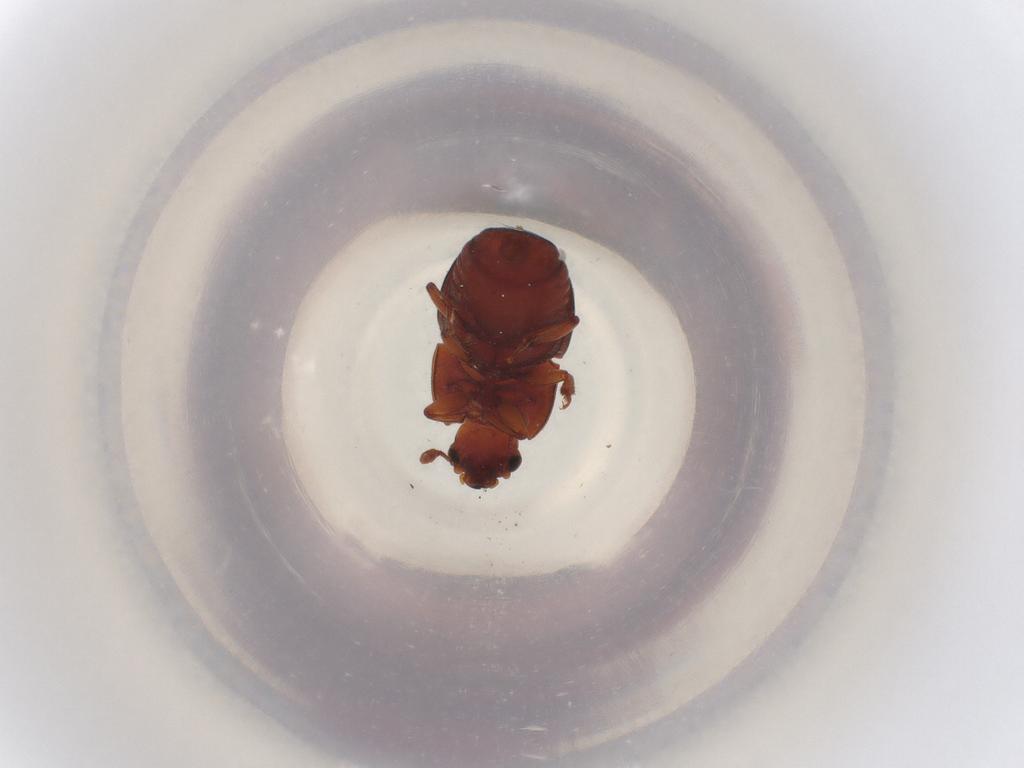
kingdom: Animalia
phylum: Arthropoda
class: Insecta
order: Coleoptera
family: Nitidulidae
